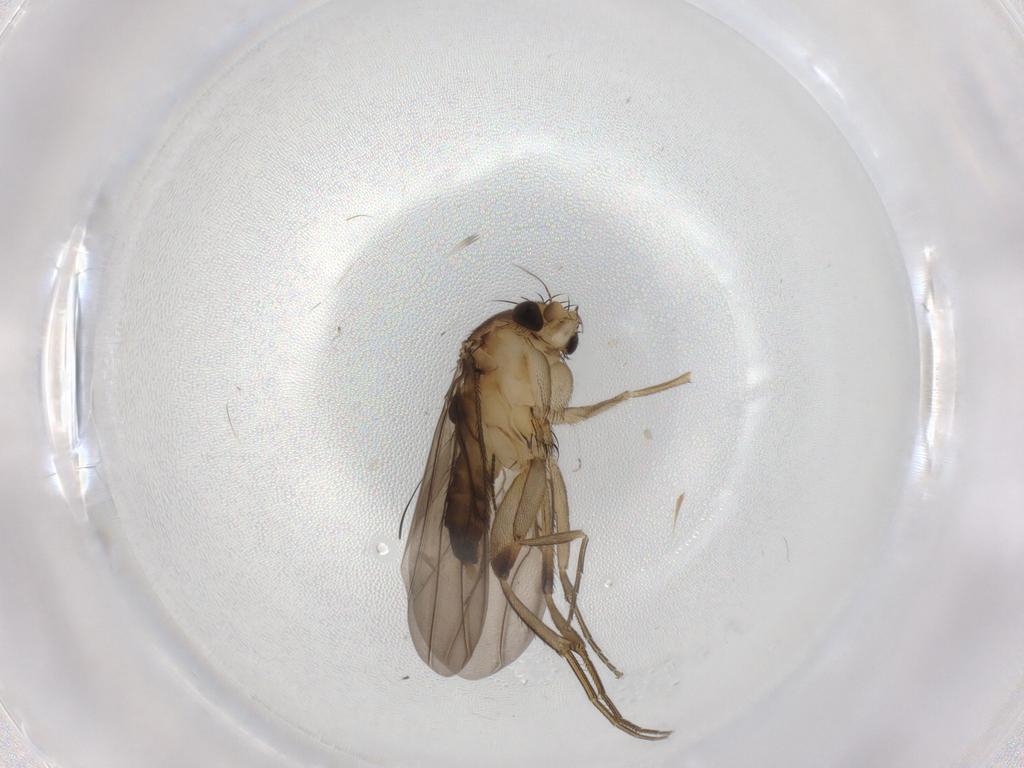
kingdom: Animalia
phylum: Arthropoda
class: Insecta
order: Diptera
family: Phoridae
